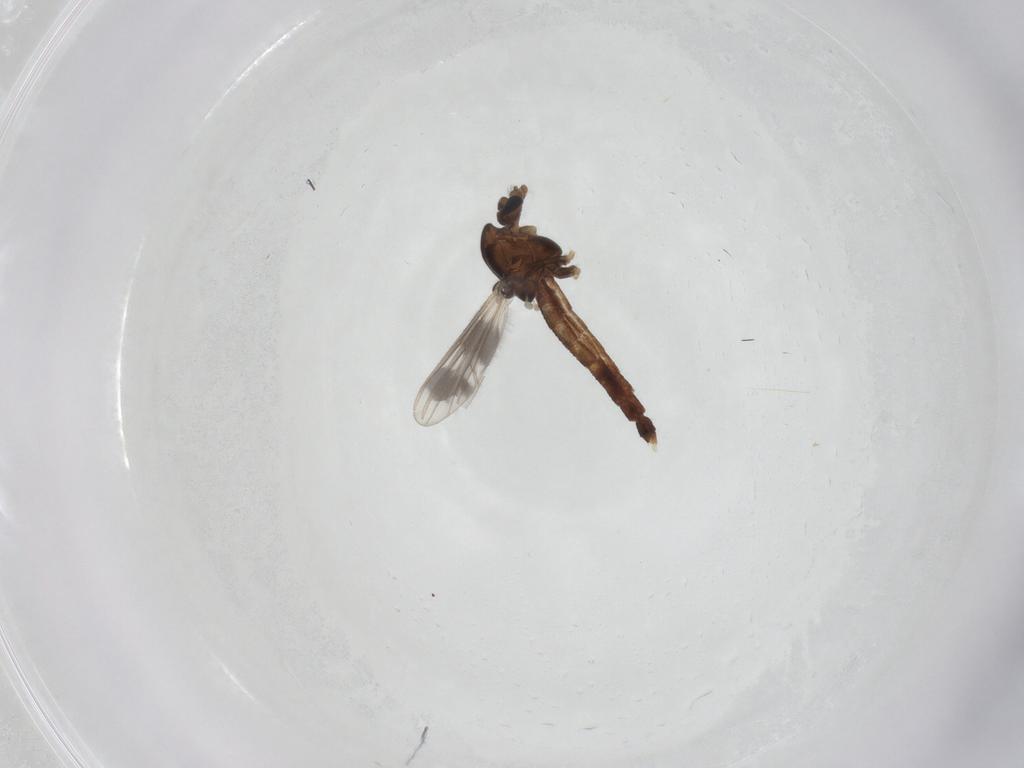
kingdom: Animalia
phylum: Arthropoda
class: Insecta
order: Diptera
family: Chironomidae
